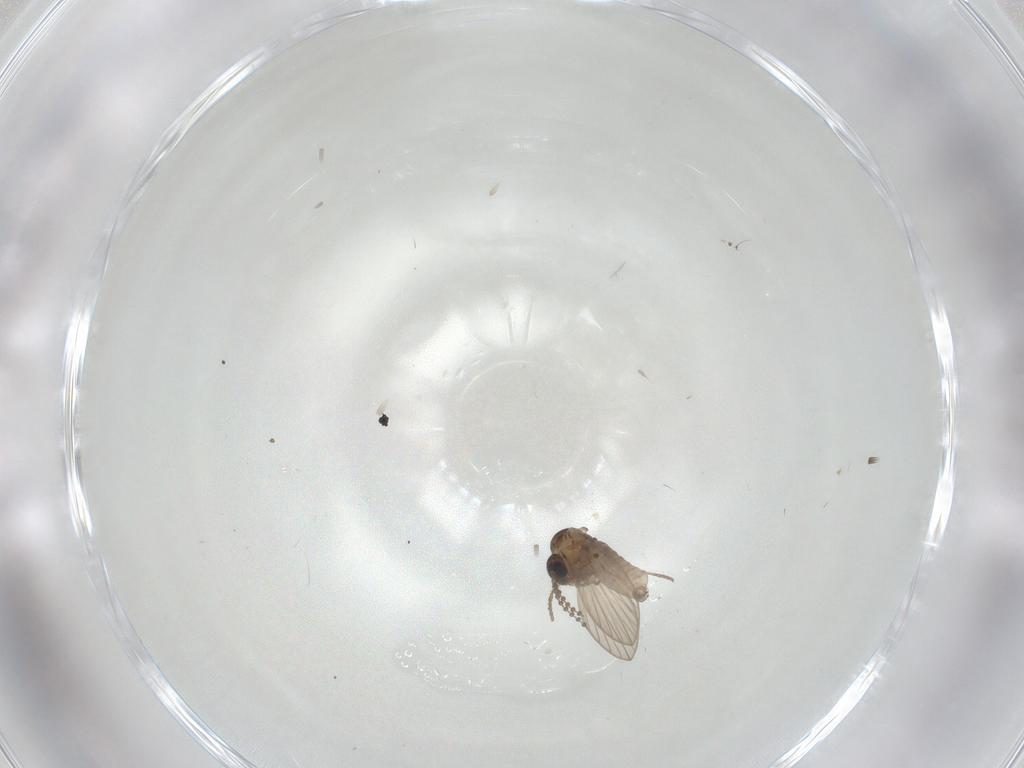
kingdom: Animalia
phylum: Arthropoda
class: Insecta
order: Diptera
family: Psychodidae
